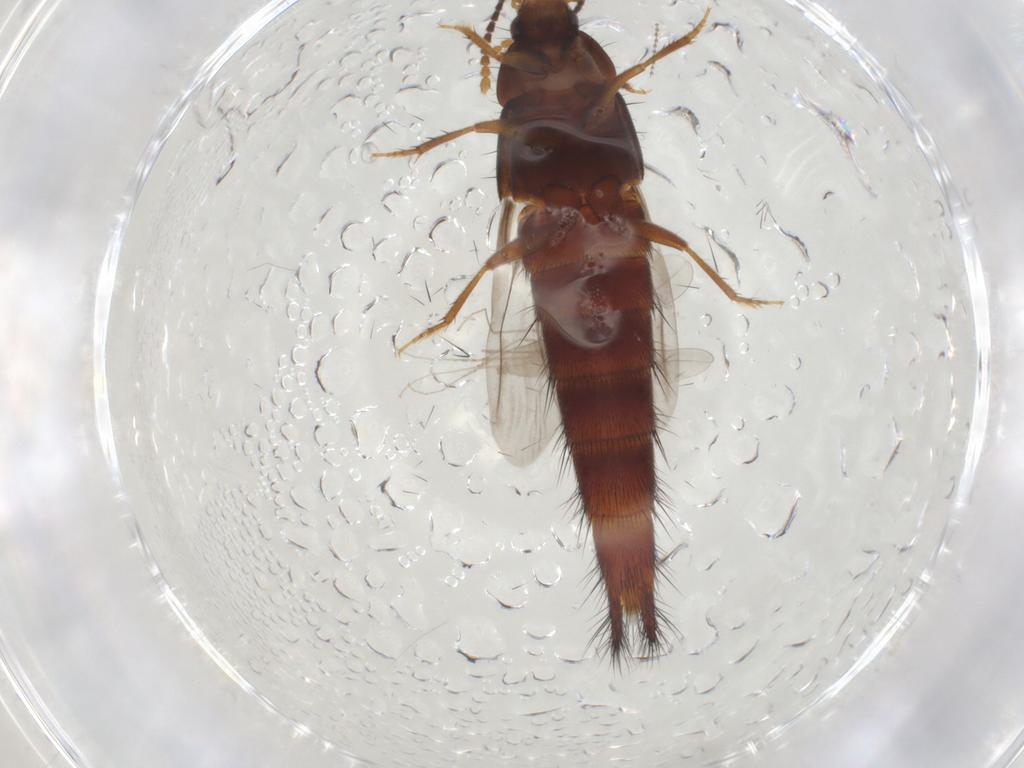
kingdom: Animalia
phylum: Arthropoda
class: Insecta
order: Coleoptera
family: Staphylinidae
